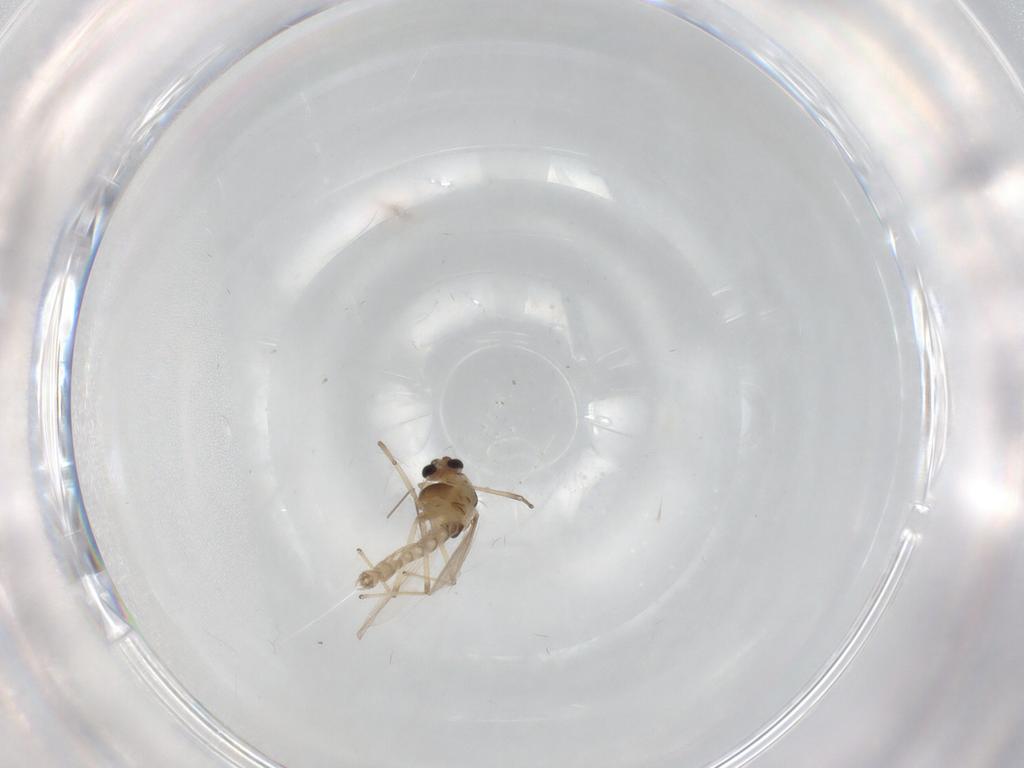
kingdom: Animalia
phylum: Arthropoda
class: Insecta
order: Diptera
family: Chironomidae
